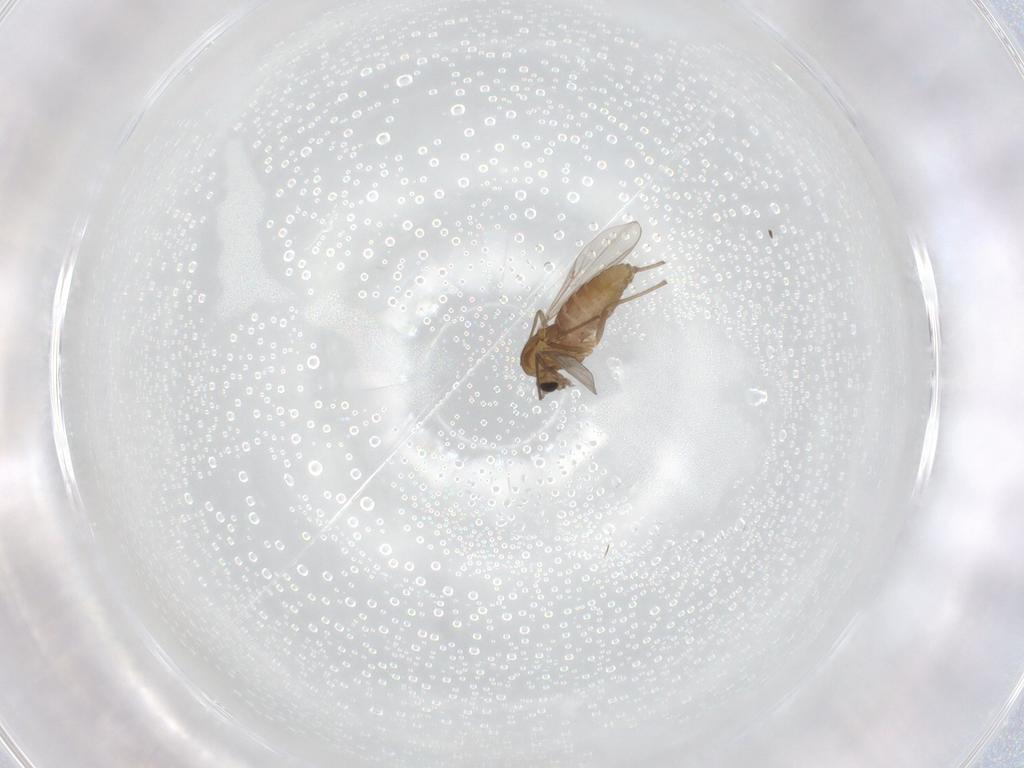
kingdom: Animalia
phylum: Arthropoda
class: Insecta
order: Diptera
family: Chironomidae
